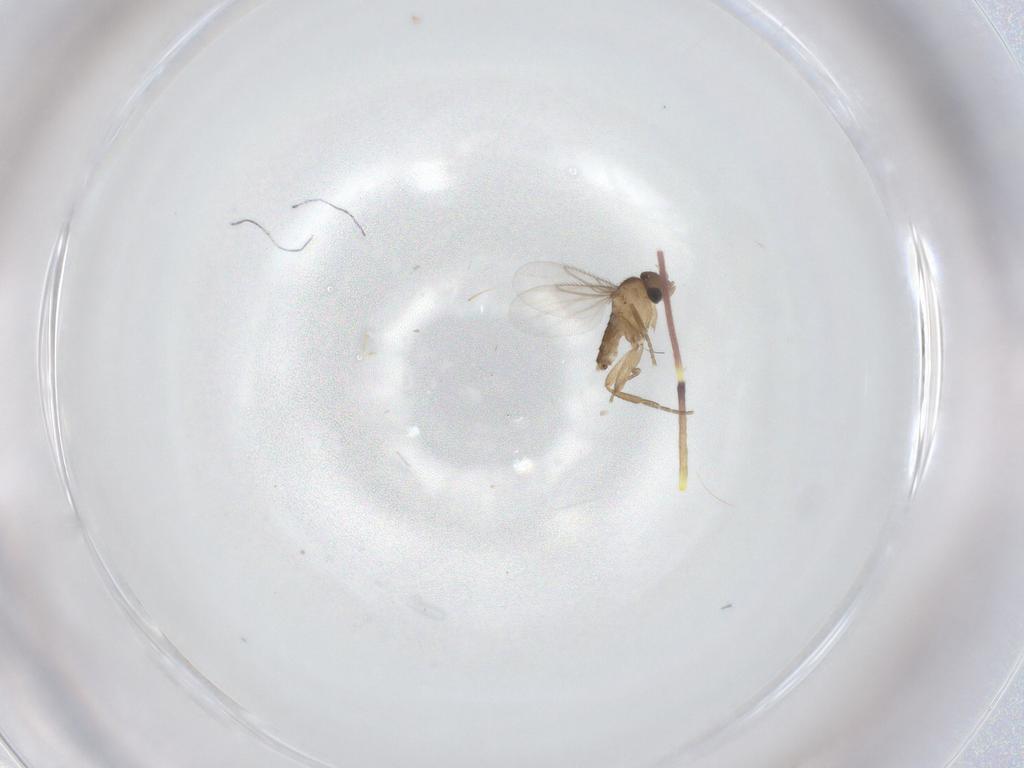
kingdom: Animalia
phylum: Arthropoda
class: Insecta
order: Diptera
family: Phoridae
